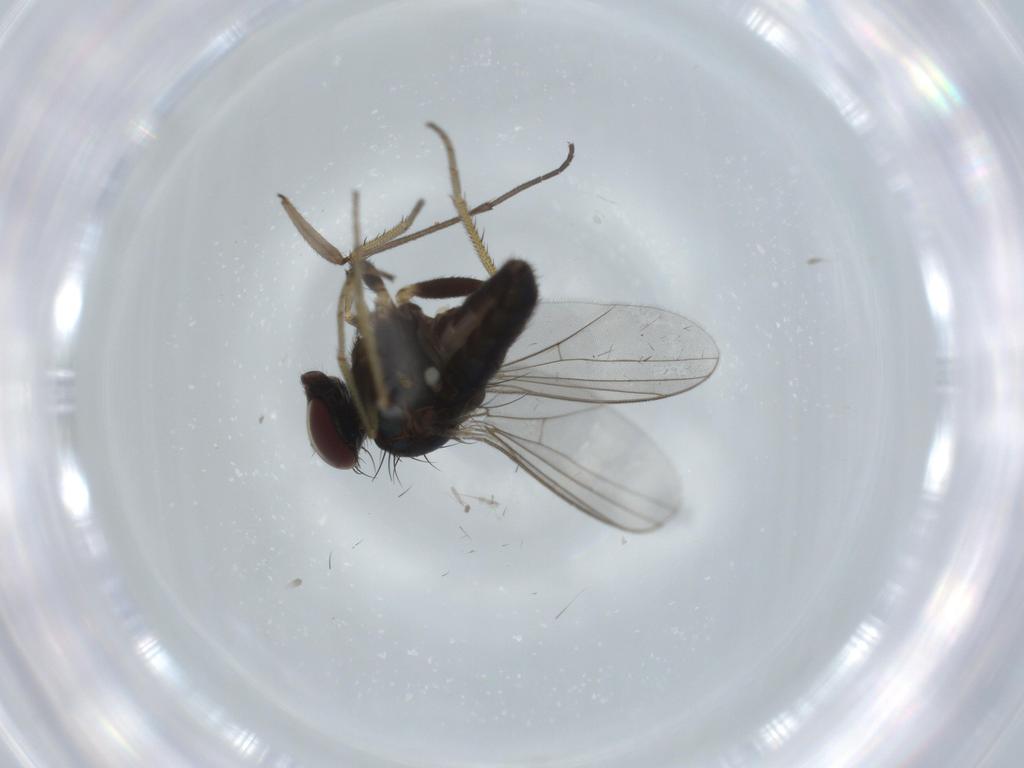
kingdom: Animalia
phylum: Arthropoda
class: Insecta
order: Diptera
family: Dolichopodidae
